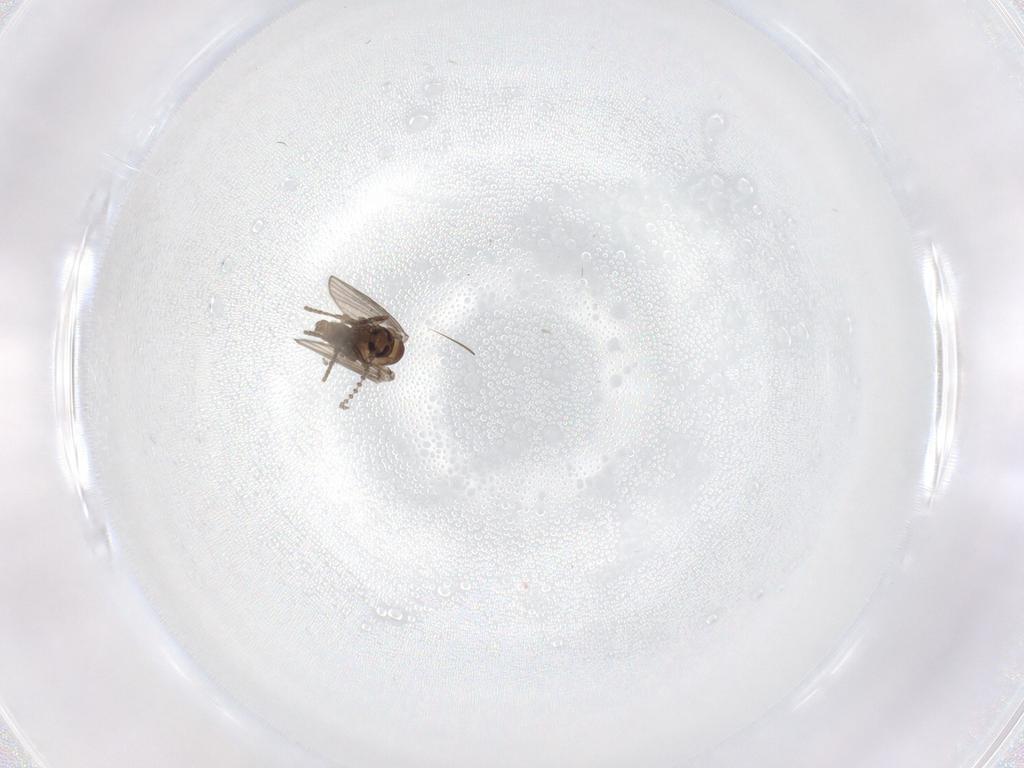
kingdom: Animalia
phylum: Arthropoda
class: Insecta
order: Diptera
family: Psychodidae
